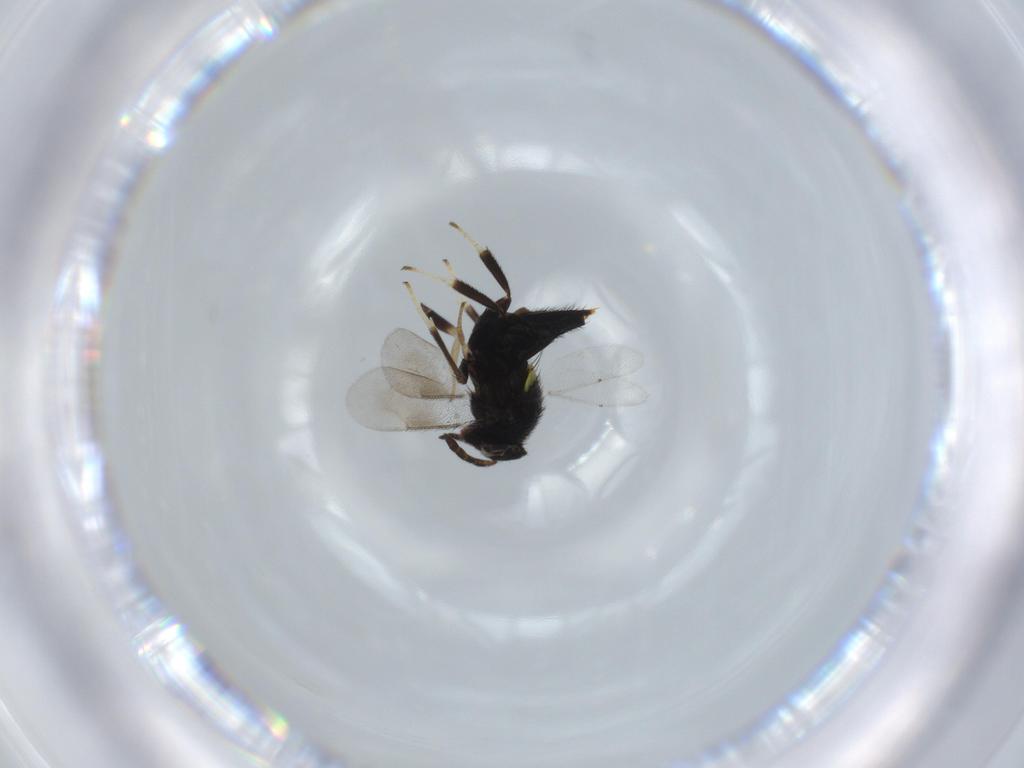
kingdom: Animalia
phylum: Arthropoda
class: Insecta
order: Hymenoptera
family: Aphelinidae
